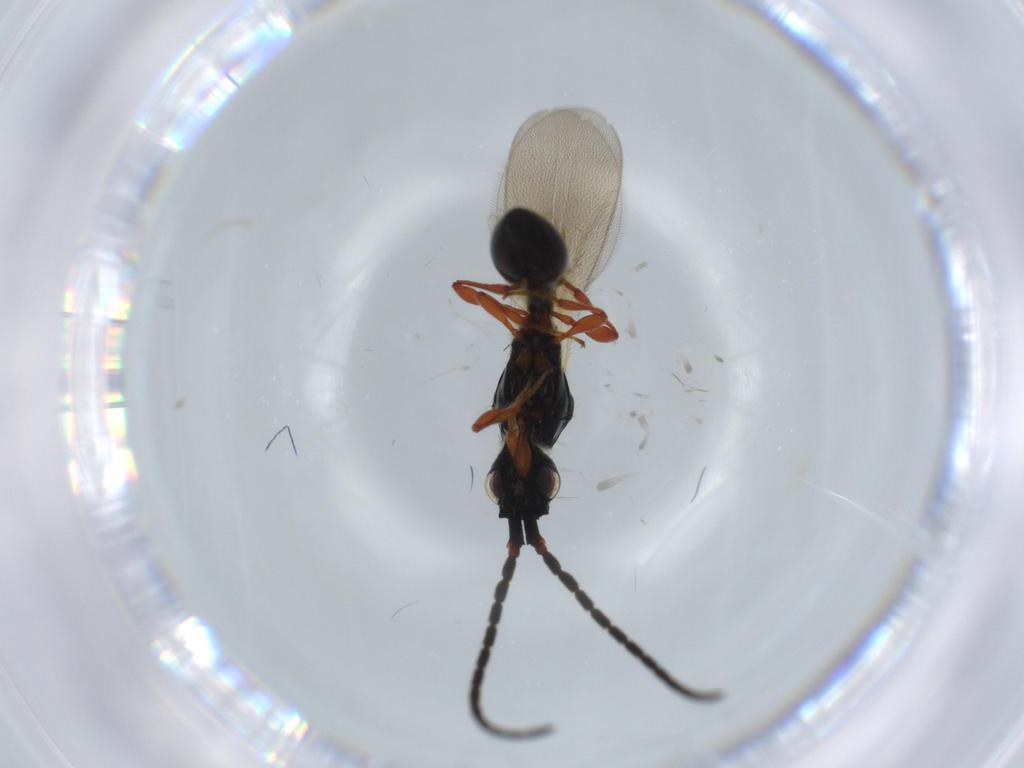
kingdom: Animalia
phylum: Arthropoda
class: Insecta
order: Hymenoptera
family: Diapriidae
